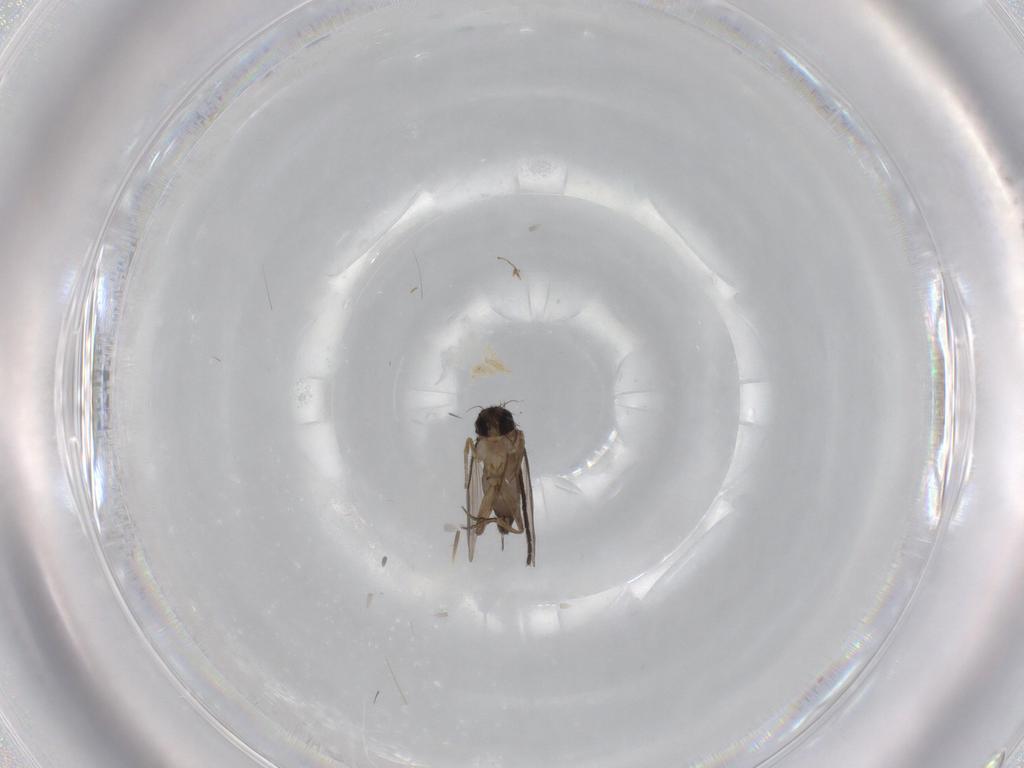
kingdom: Animalia
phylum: Arthropoda
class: Insecta
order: Diptera
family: Phoridae
